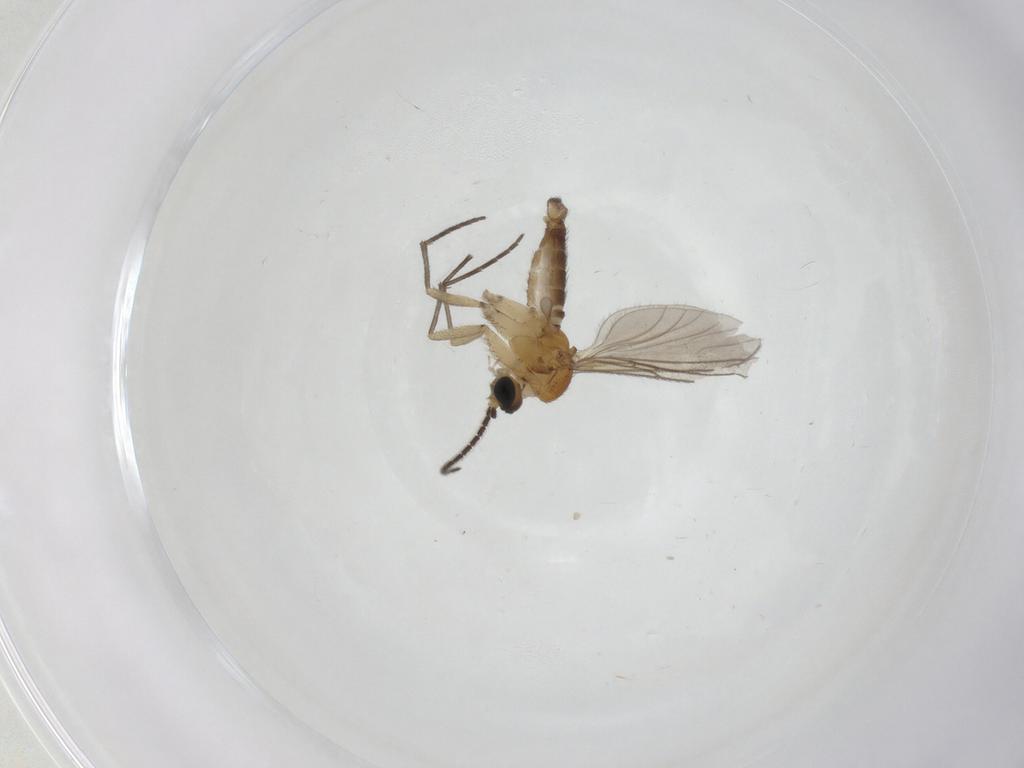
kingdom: Animalia
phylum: Arthropoda
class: Insecta
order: Diptera
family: Sciaridae
